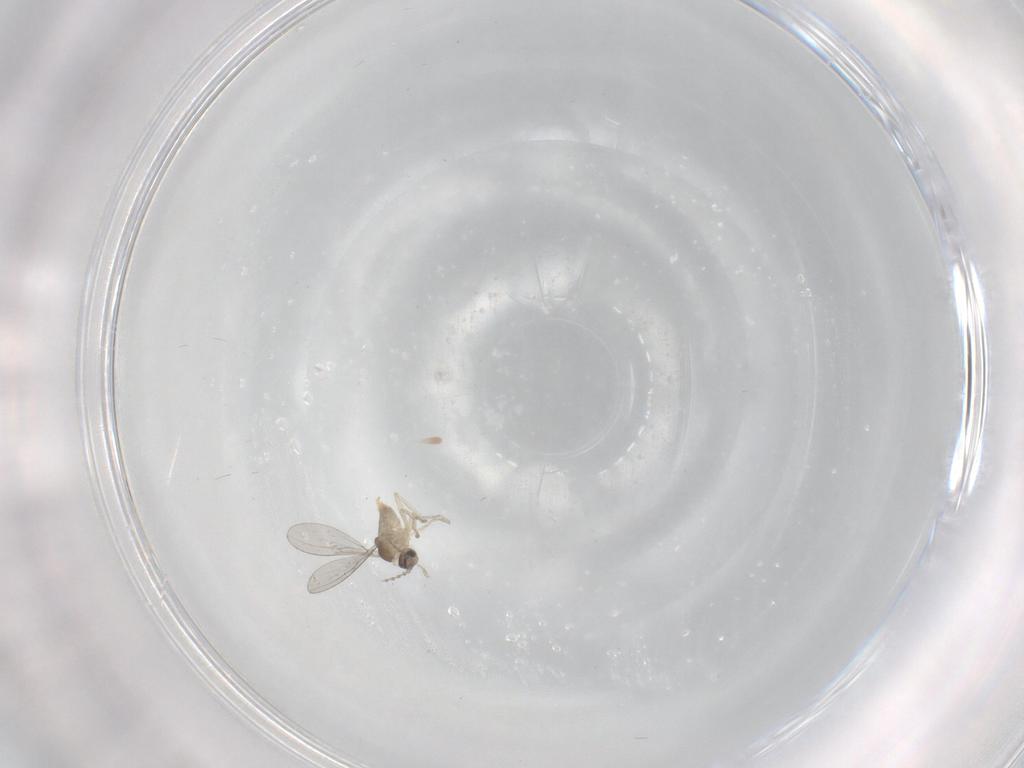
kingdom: Animalia
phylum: Arthropoda
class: Insecta
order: Diptera
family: Cecidomyiidae
